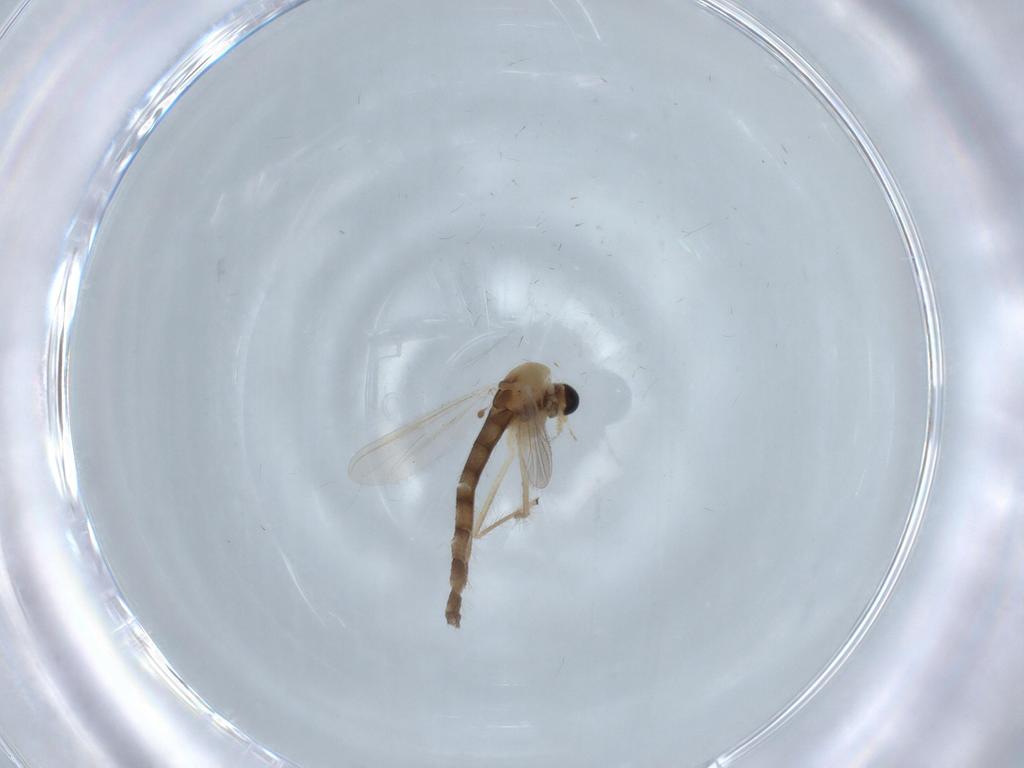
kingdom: Animalia
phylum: Arthropoda
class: Insecta
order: Diptera
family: Chironomidae
